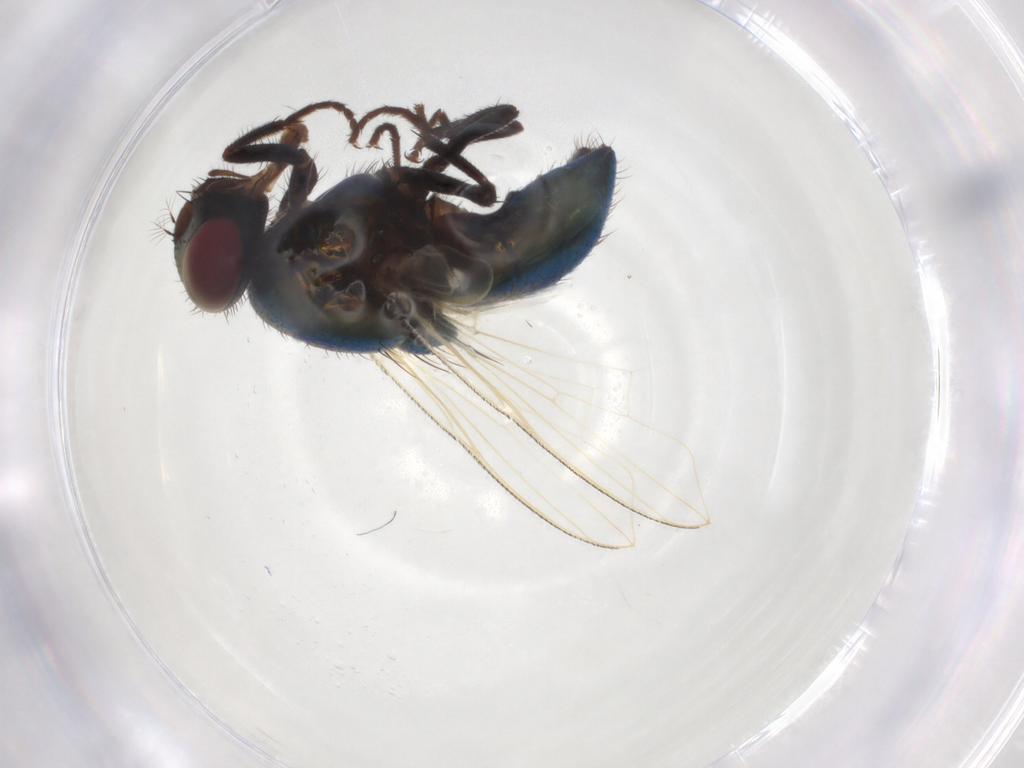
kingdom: Animalia
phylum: Arthropoda
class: Insecta
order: Diptera
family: Muscidae
